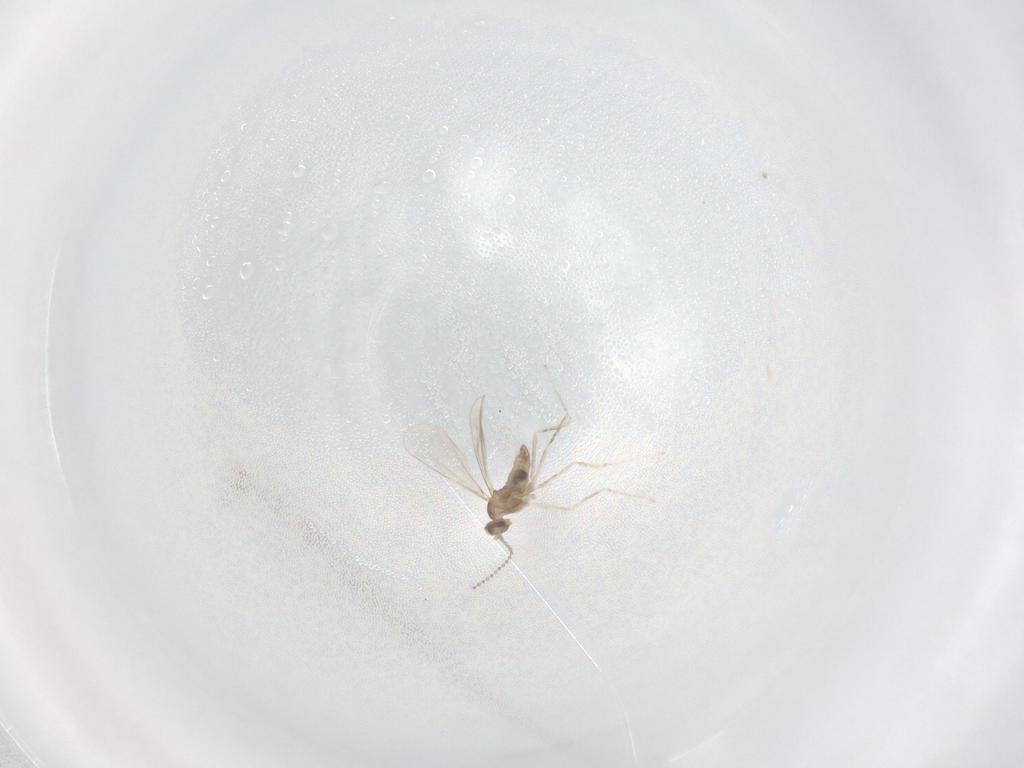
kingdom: Animalia
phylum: Arthropoda
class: Insecta
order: Diptera
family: Cecidomyiidae
